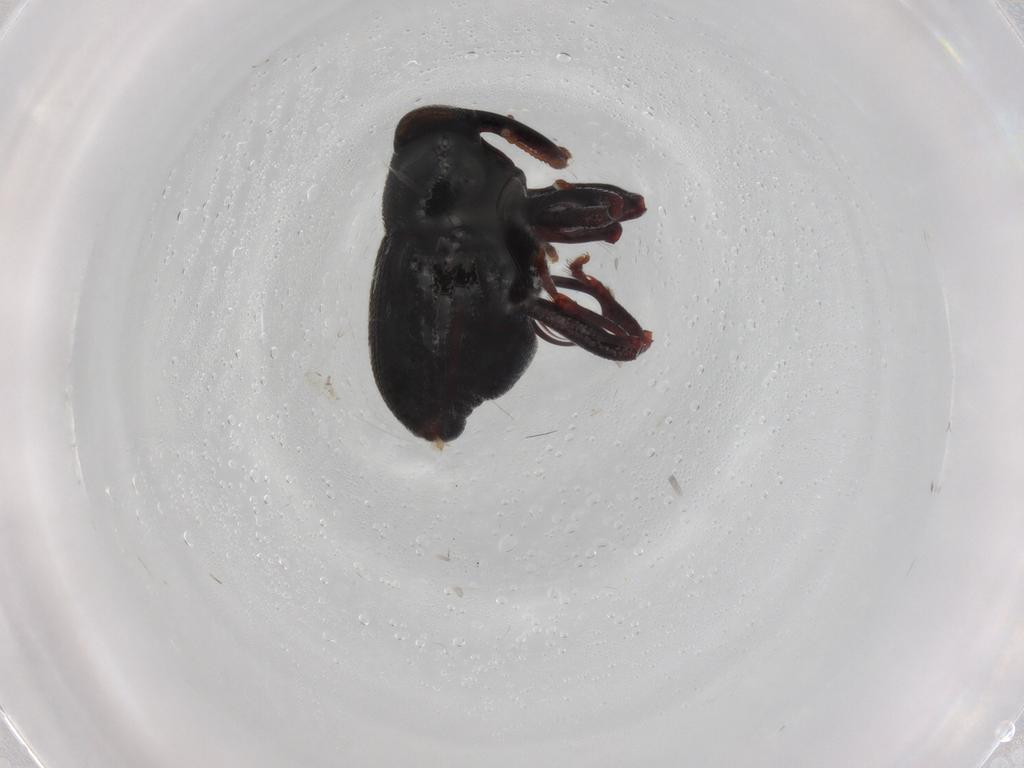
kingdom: Animalia
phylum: Arthropoda
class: Insecta
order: Coleoptera
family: Curculionidae
